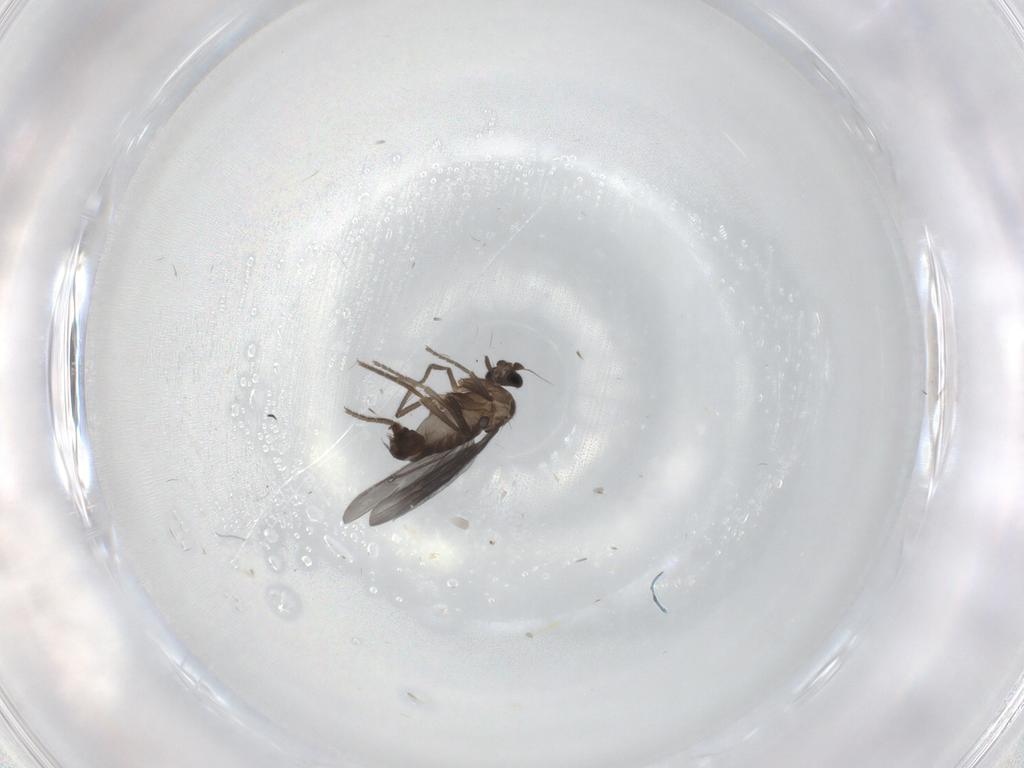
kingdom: Animalia
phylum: Arthropoda
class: Insecta
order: Diptera
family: Phoridae
